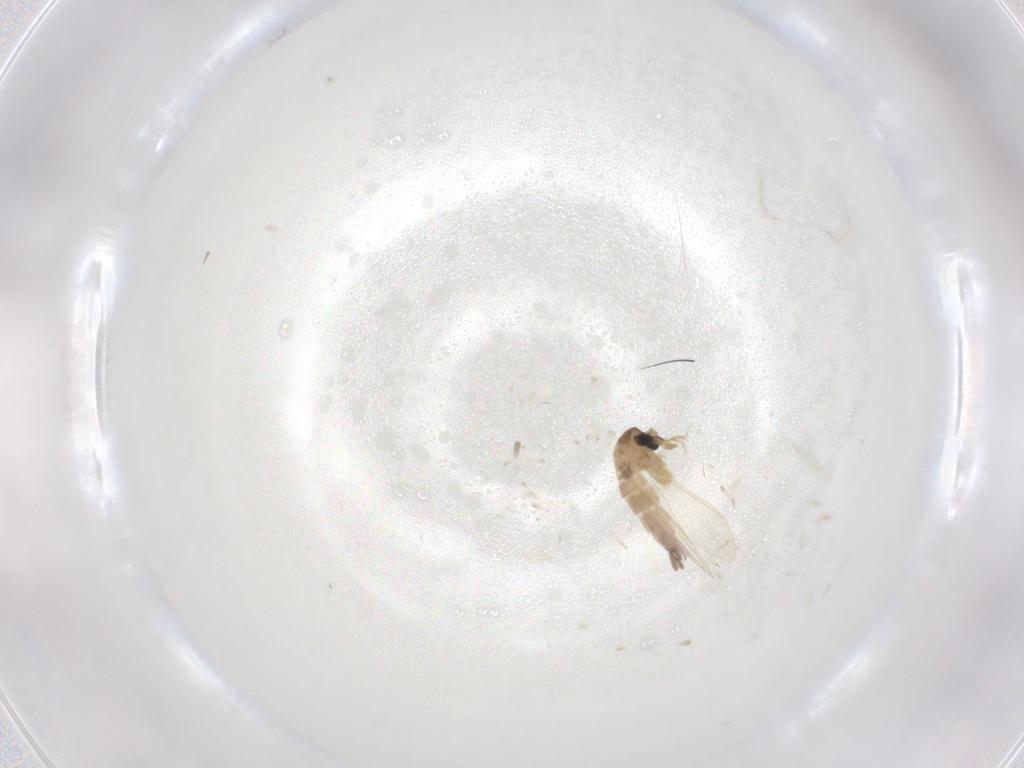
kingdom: Animalia
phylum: Arthropoda
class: Insecta
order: Diptera
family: Psychodidae
